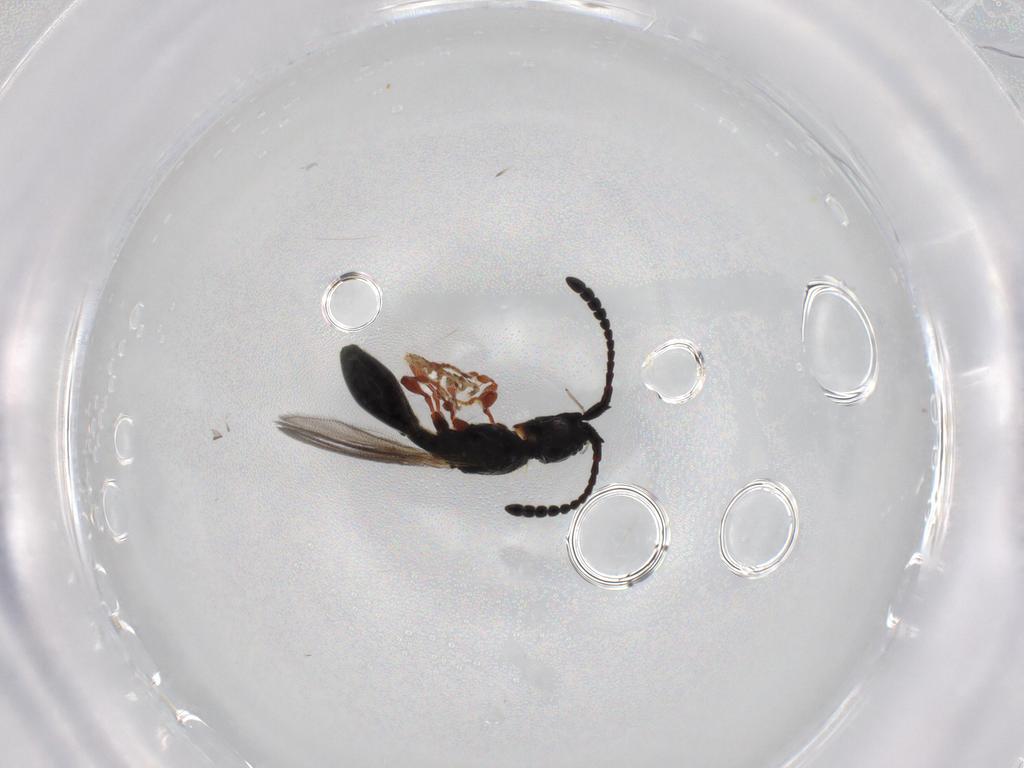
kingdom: Animalia
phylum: Arthropoda
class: Insecta
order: Hymenoptera
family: Diapriidae
